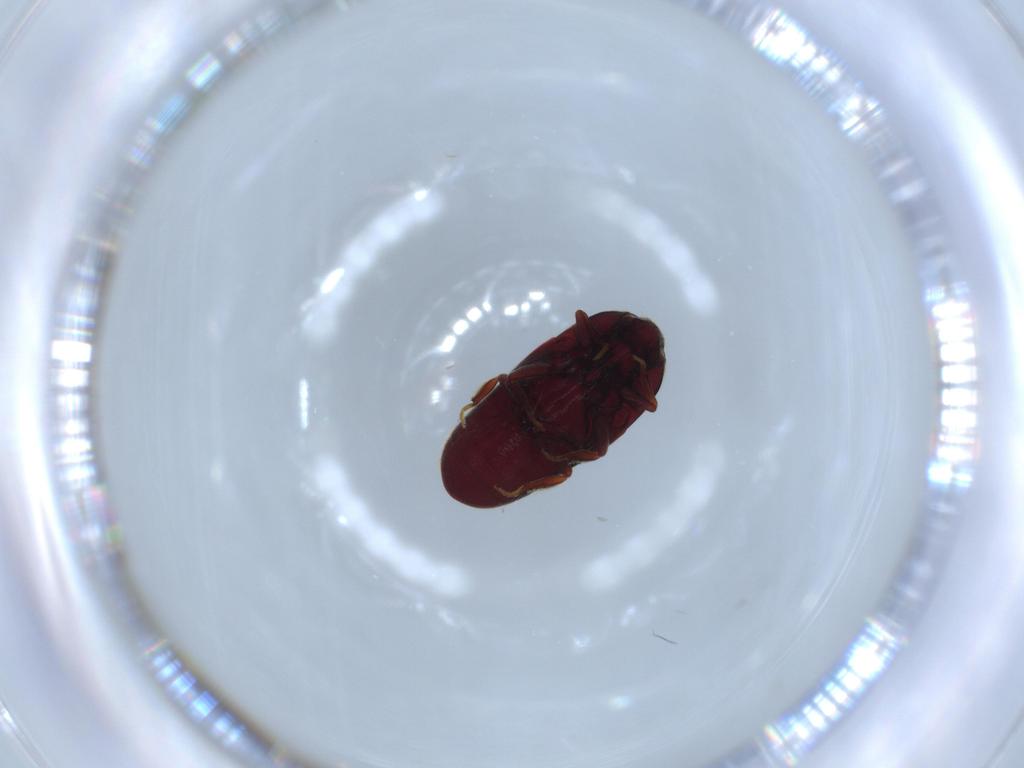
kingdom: Animalia
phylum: Arthropoda
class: Insecta
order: Coleoptera
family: Throscidae
